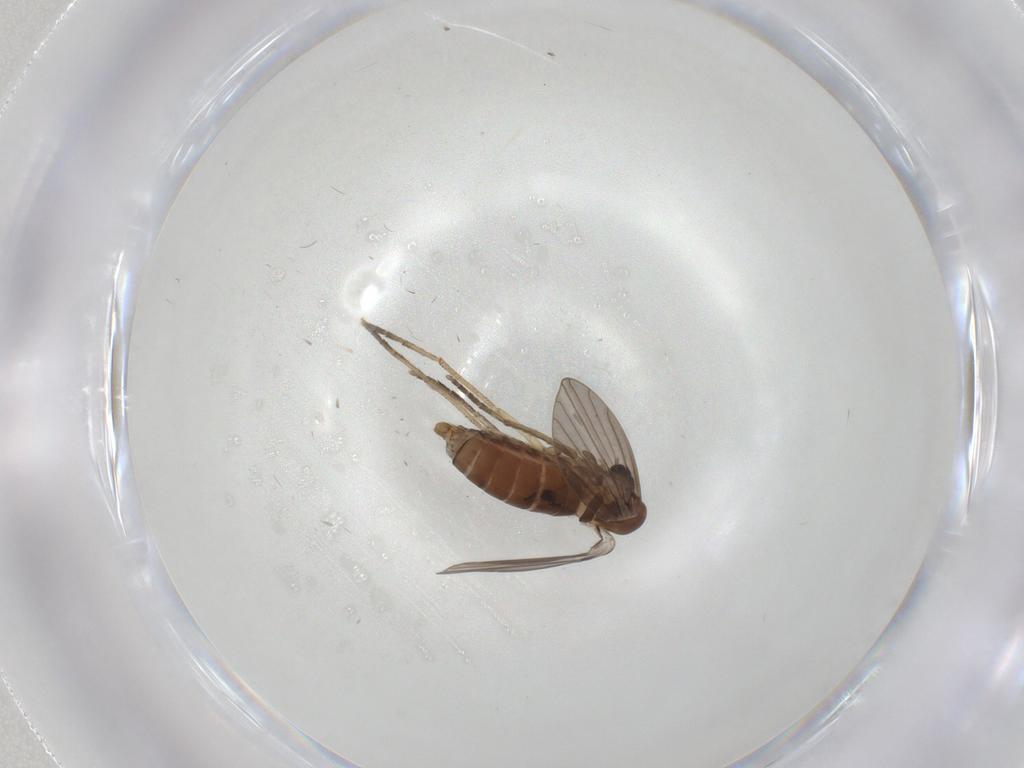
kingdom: Animalia
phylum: Arthropoda
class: Insecta
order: Diptera
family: Psychodidae
